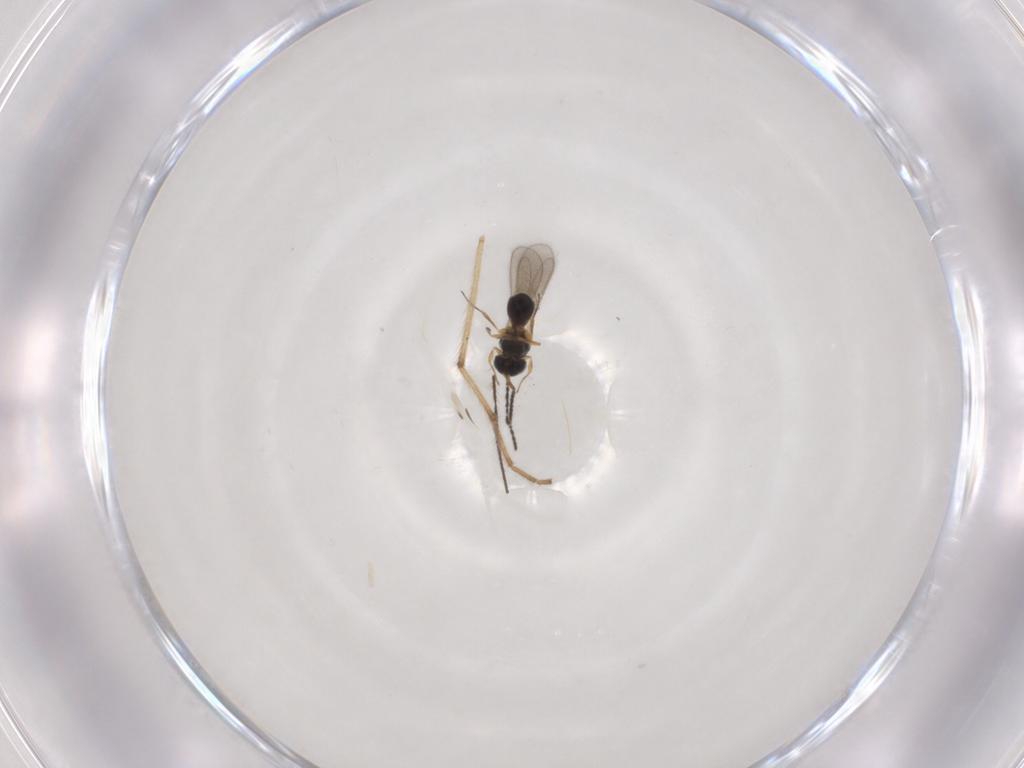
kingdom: Animalia
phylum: Arthropoda
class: Insecta
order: Hymenoptera
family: Scelionidae
